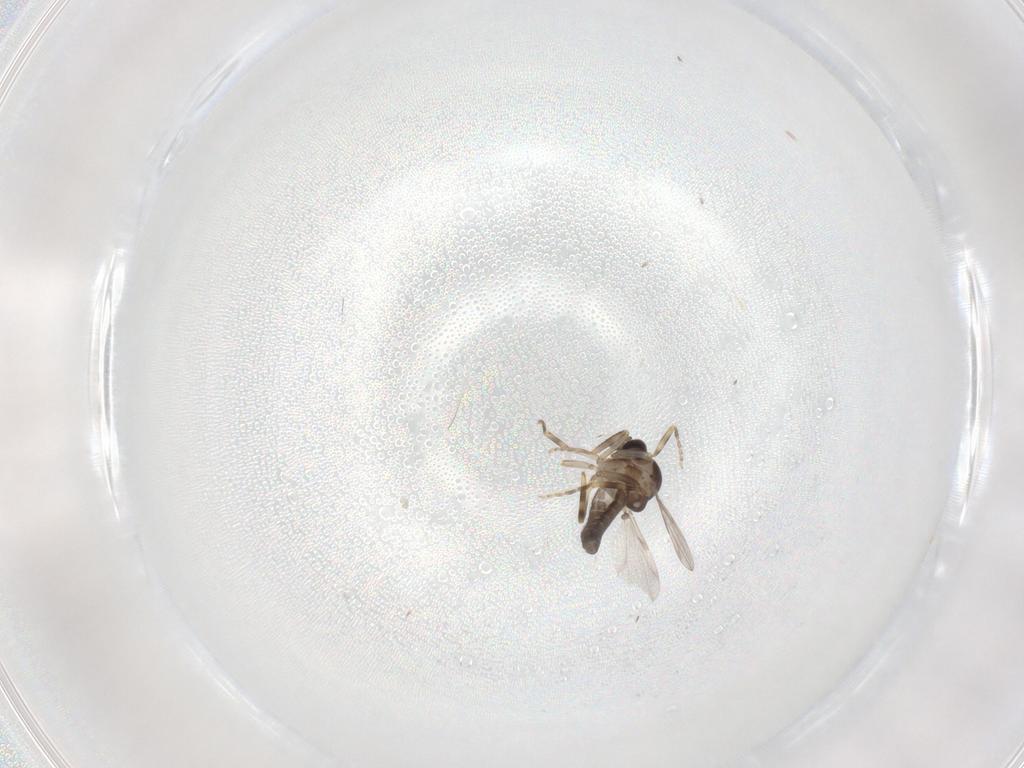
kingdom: Animalia
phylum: Arthropoda
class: Insecta
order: Diptera
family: Ceratopogonidae
